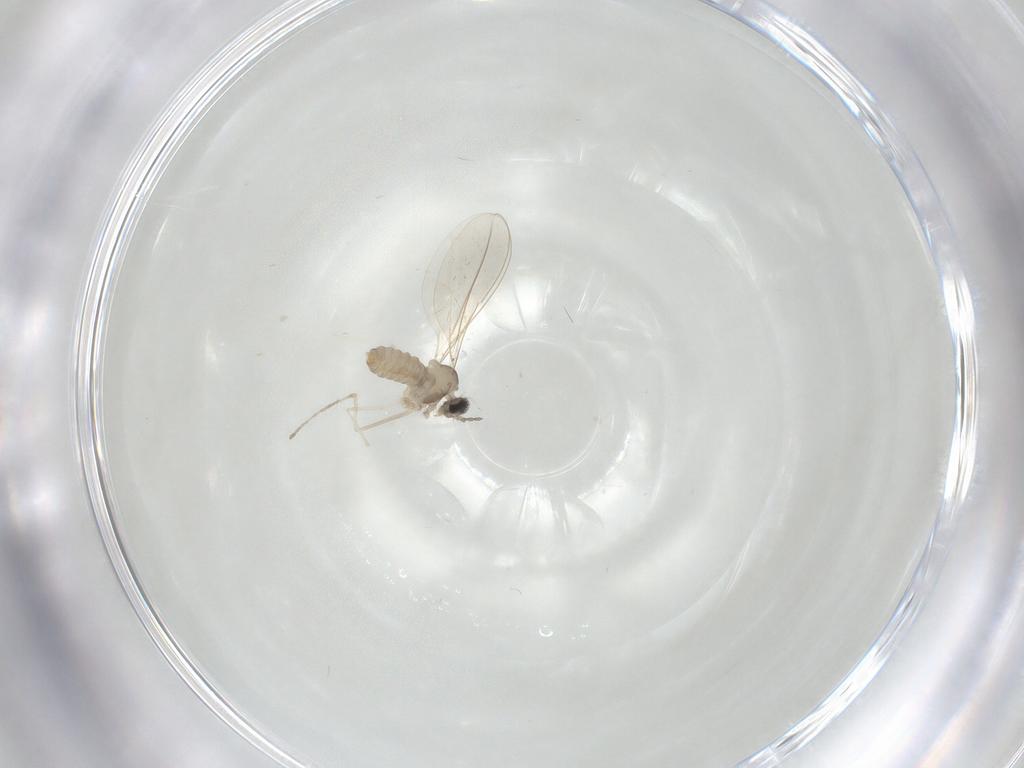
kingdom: Animalia
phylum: Arthropoda
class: Insecta
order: Diptera
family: Cecidomyiidae
